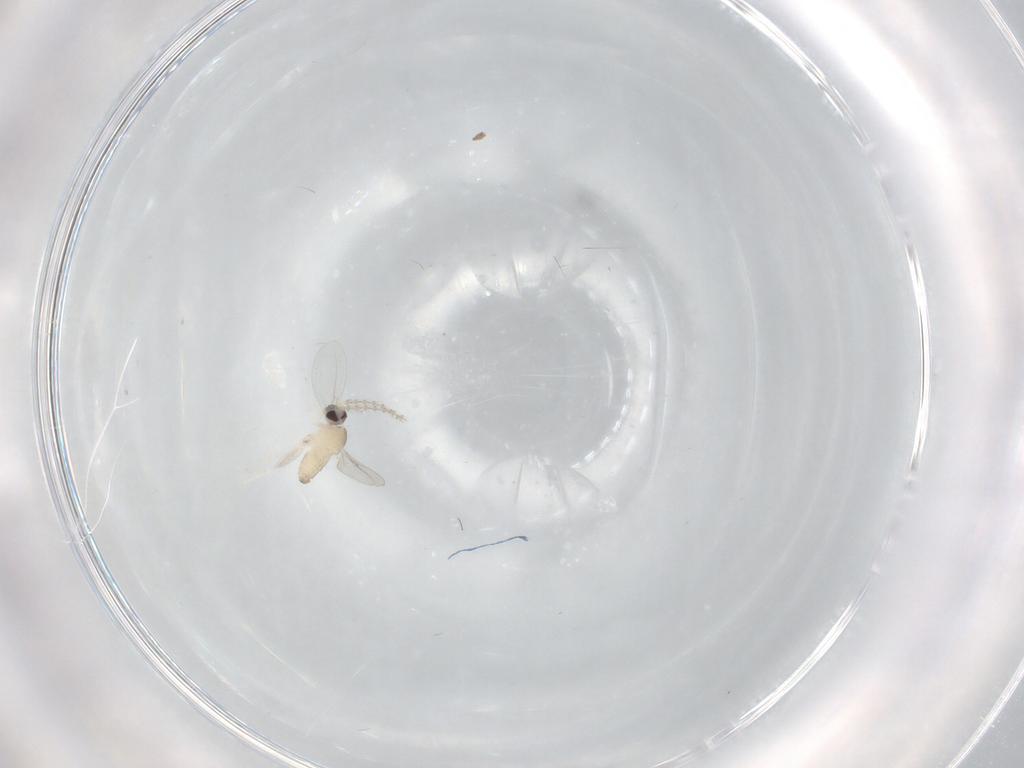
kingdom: Animalia
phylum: Arthropoda
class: Insecta
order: Diptera
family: Cecidomyiidae
